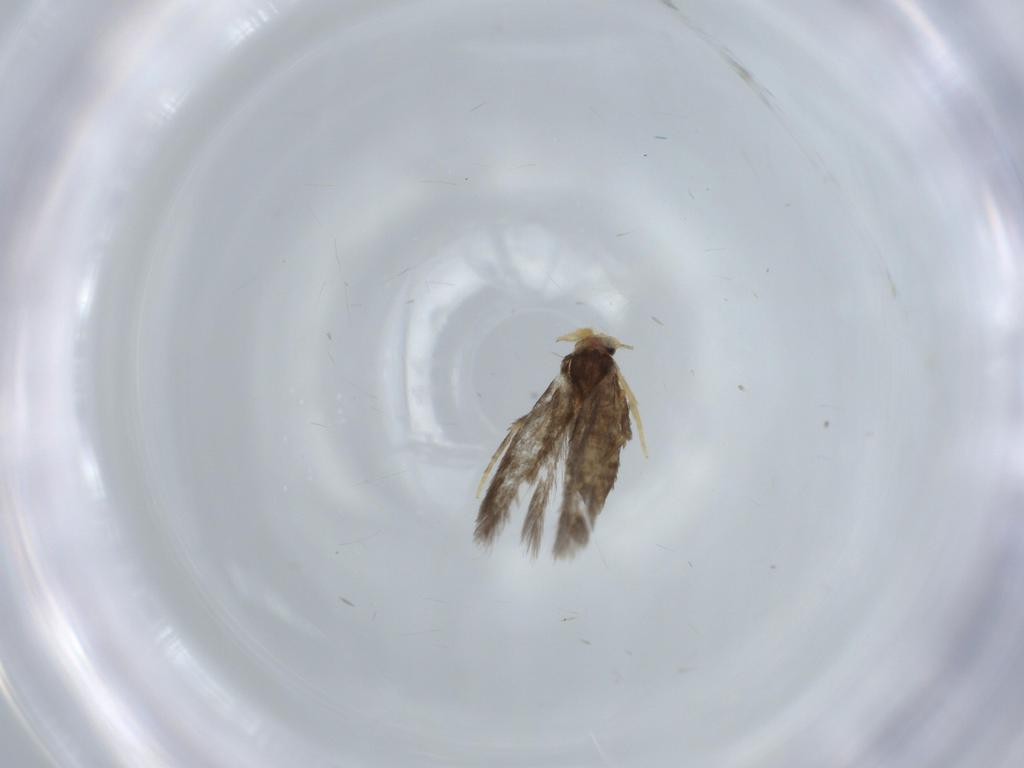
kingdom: Animalia
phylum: Arthropoda
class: Insecta
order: Lepidoptera
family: Nepticulidae
